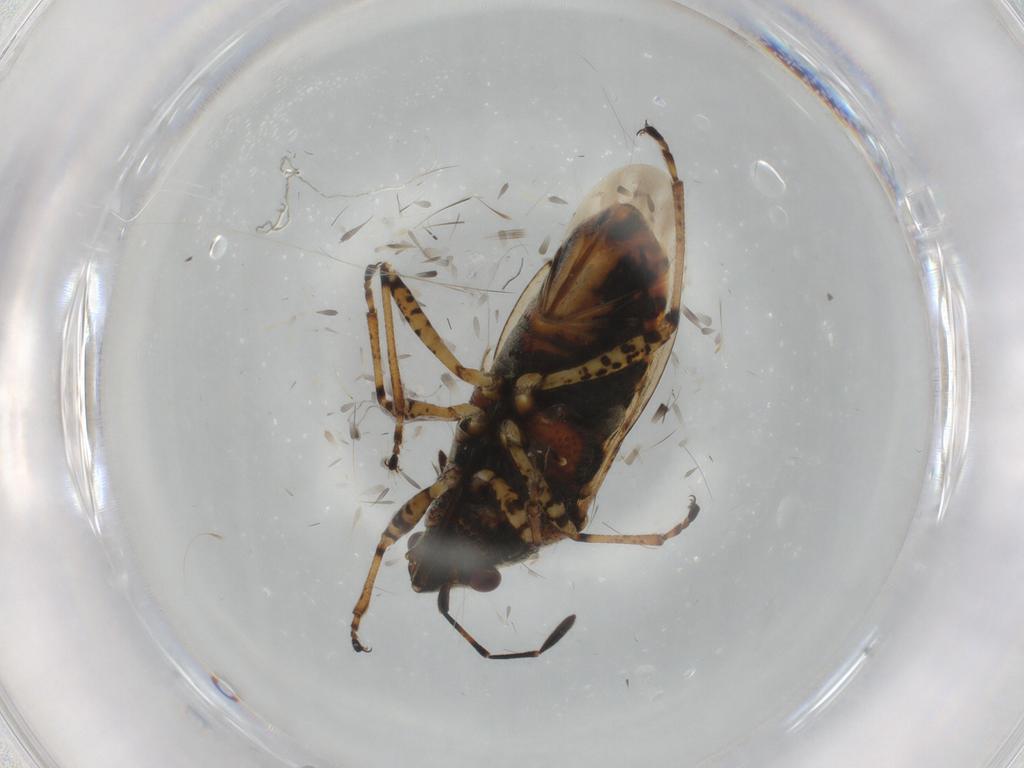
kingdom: Animalia
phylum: Arthropoda
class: Insecta
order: Hemiptera
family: Lygaeidae
